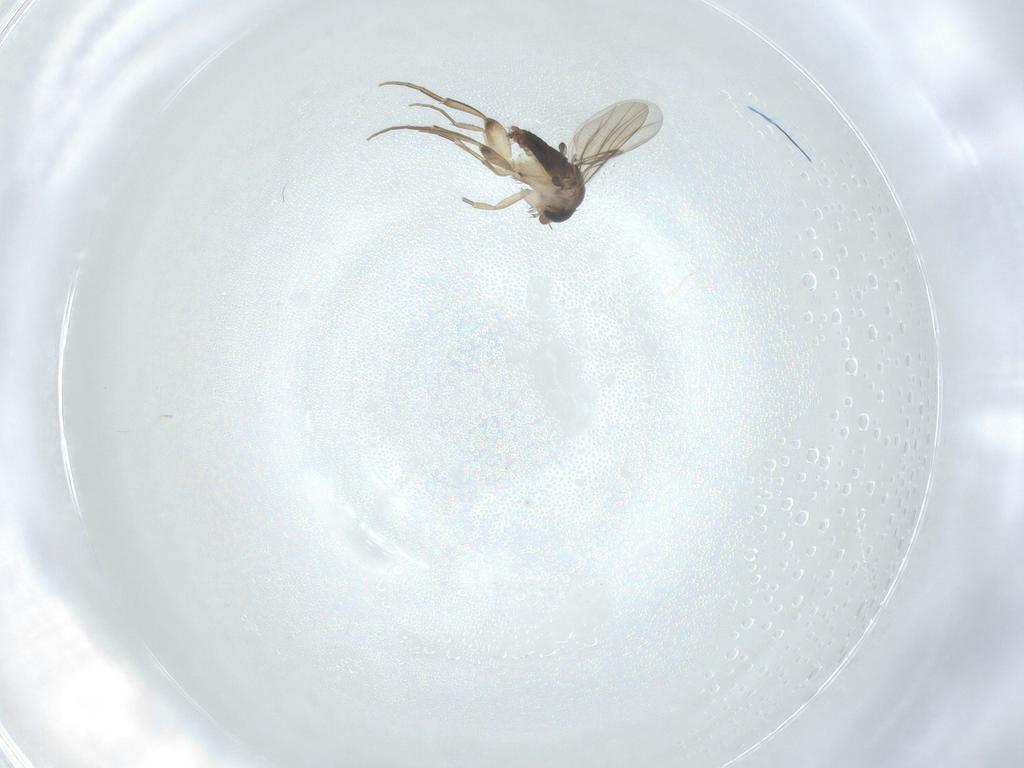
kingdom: Animalia
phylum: Arthropoda
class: Insecta
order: Diptera
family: Phoridae
